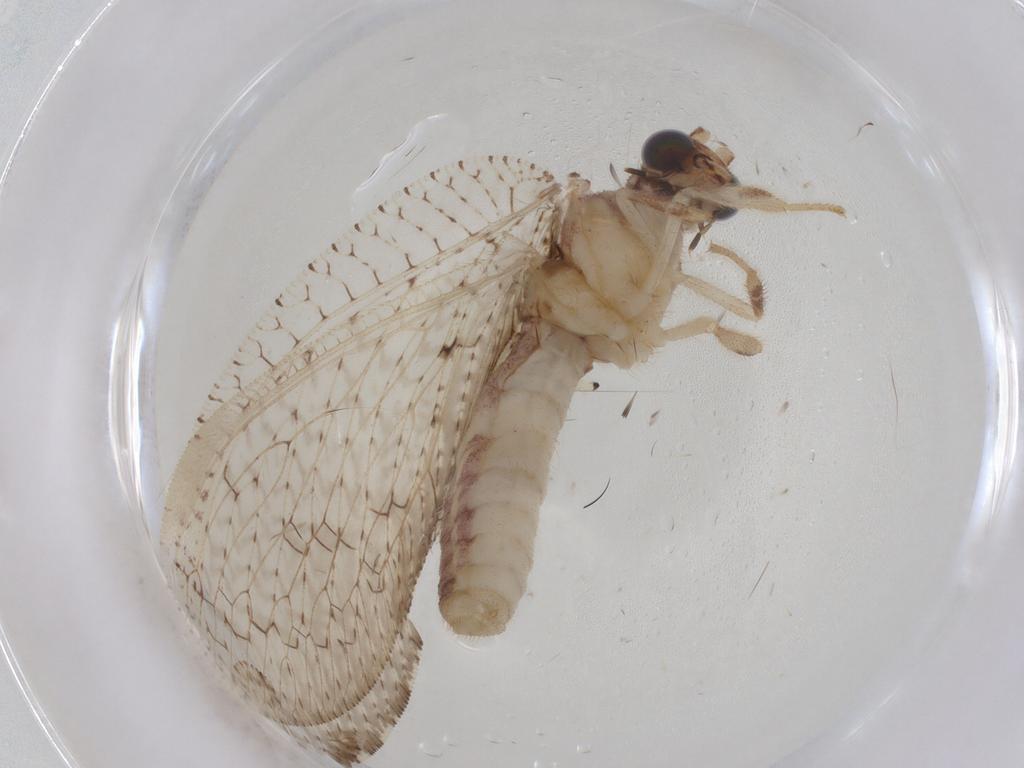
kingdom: Animalia
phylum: Arthropoda
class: Insecta
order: Neuroptera
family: Hemerobiidae
